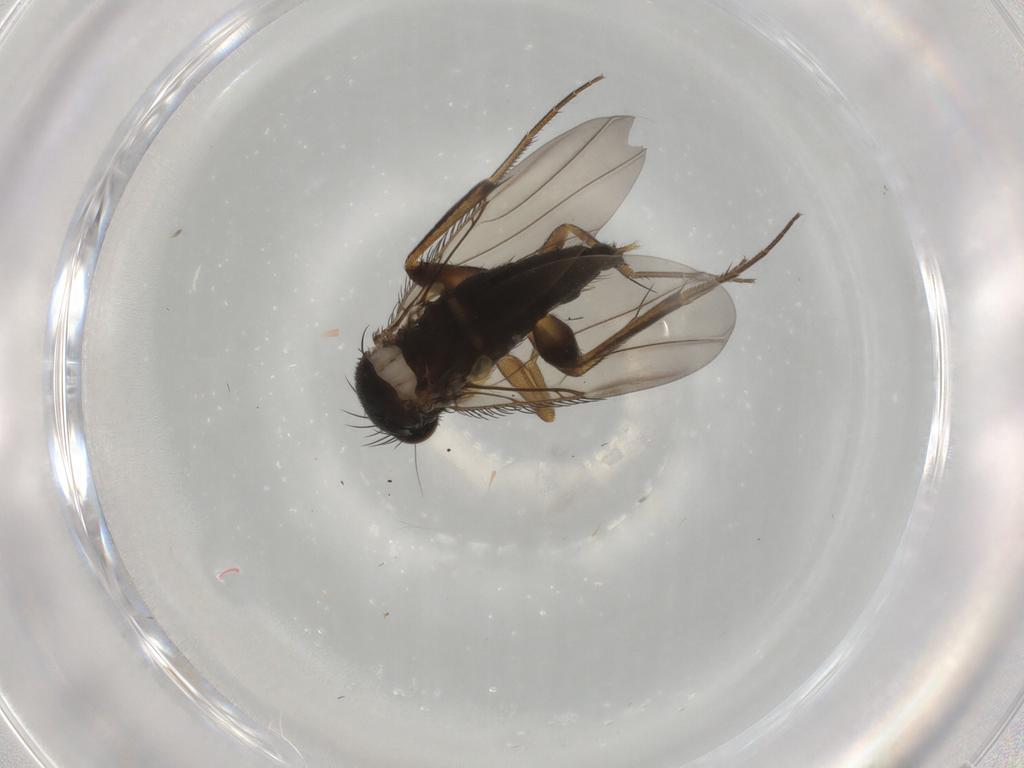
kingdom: Animalia
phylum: Arthropoda
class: Insecta
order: Diptera
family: Phoridae
